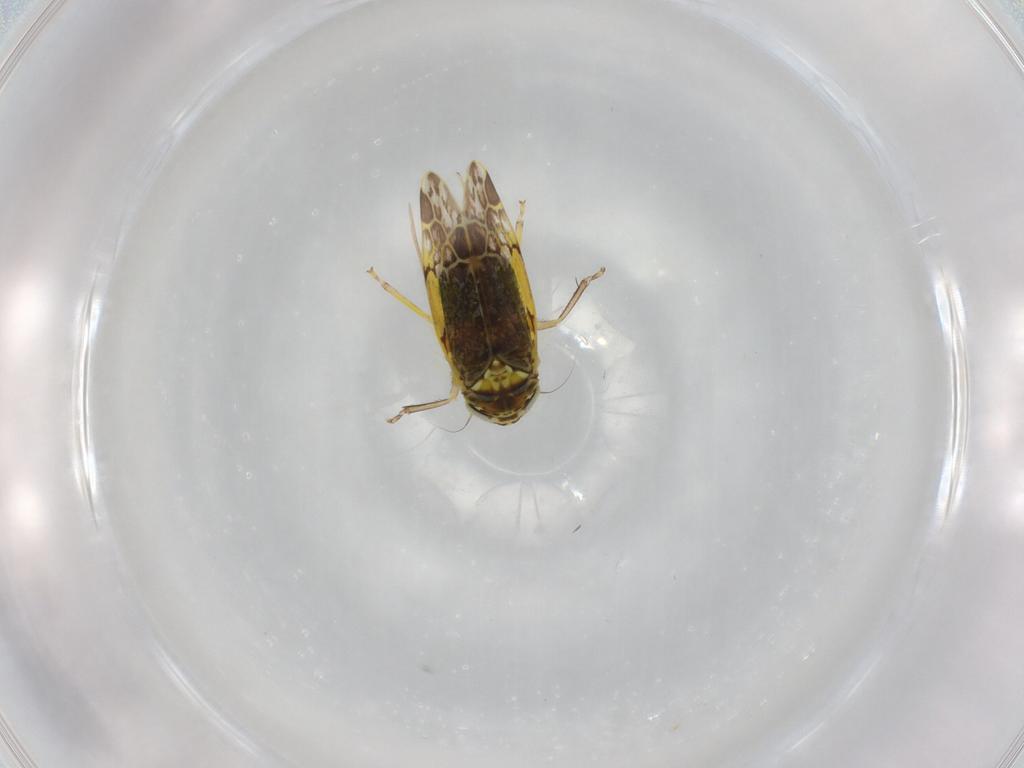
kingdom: Animalia
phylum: Arthropoda
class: Insecta
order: Hemiptera
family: Cicadellidae
